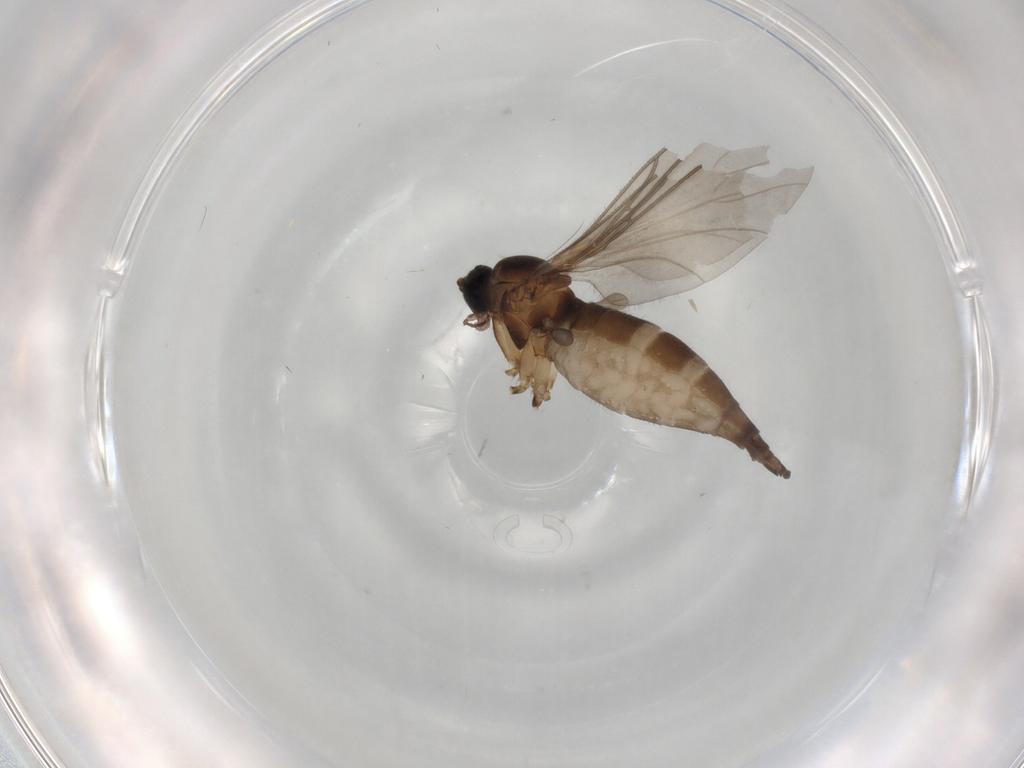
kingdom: Animalia
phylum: Arthropoda
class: Insecta
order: Diptera
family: Sciaridae
